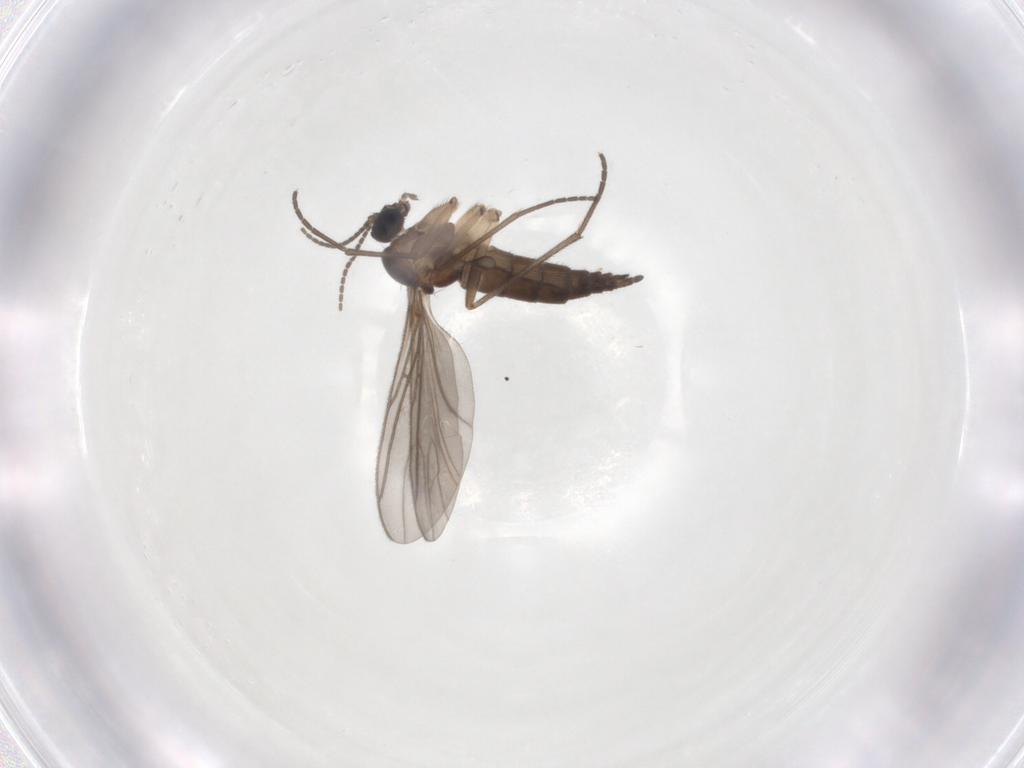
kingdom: Animalia
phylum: Arthropoda
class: Insecta
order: Diptera
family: Sciaridae
